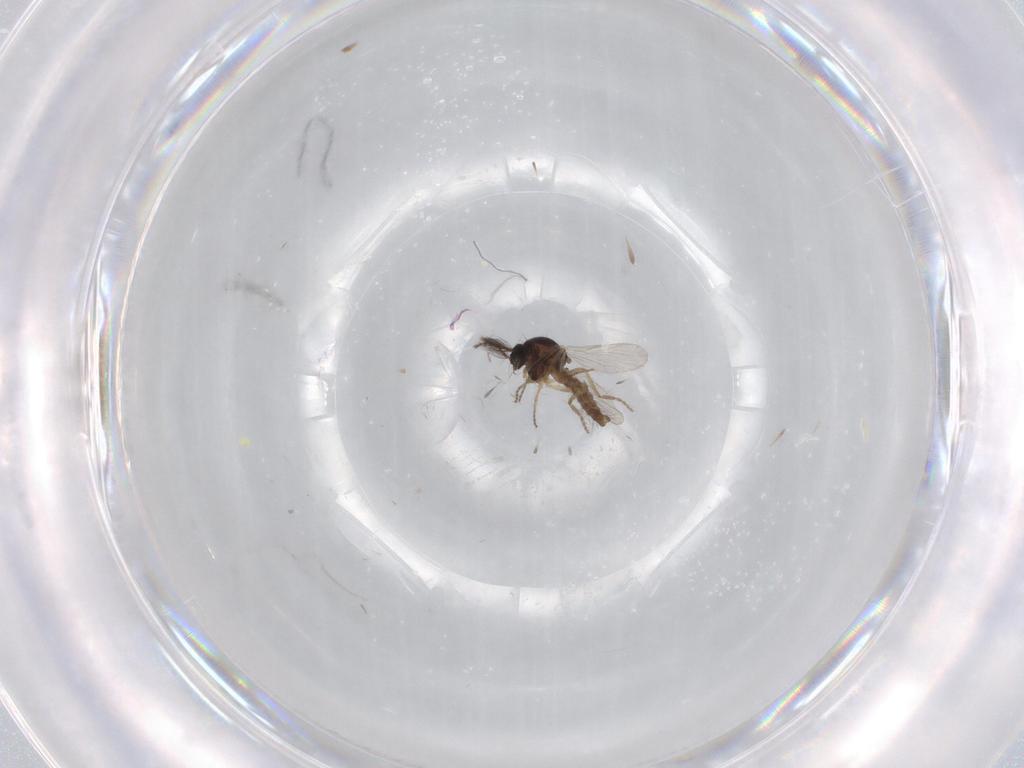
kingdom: Animalia
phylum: Arthropoda
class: Insecta
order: Diptera
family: Ceratopogonidae
